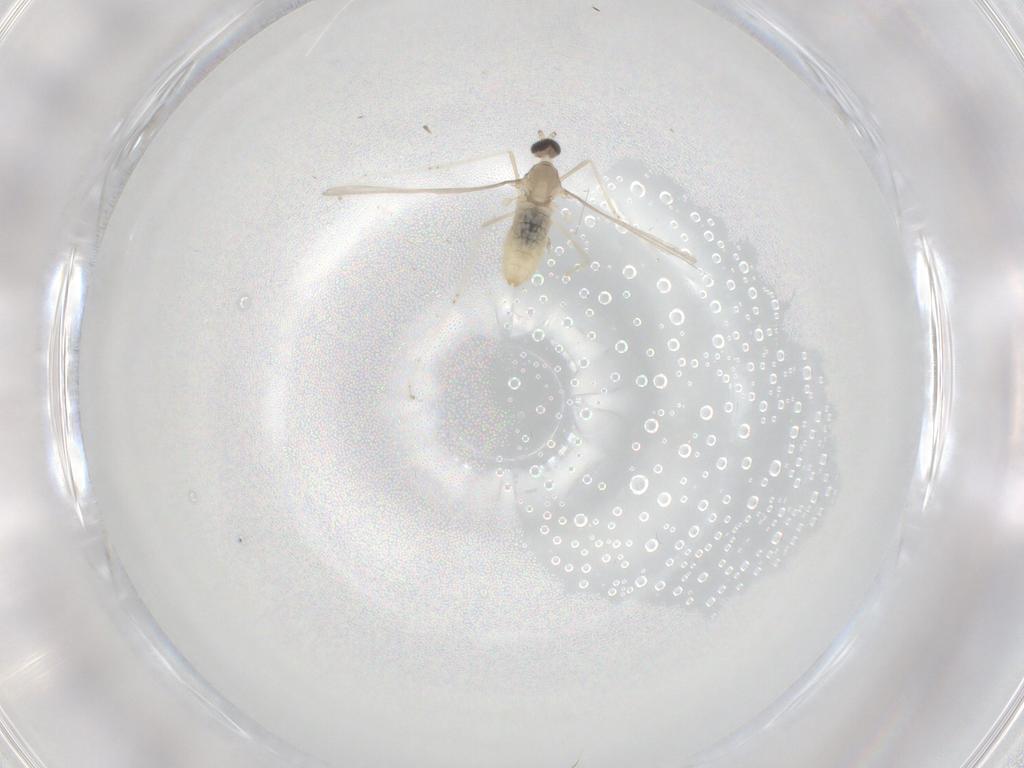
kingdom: Animalia
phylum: Arthropoda
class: Insecta
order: Diptera
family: Cecidomyiidae
